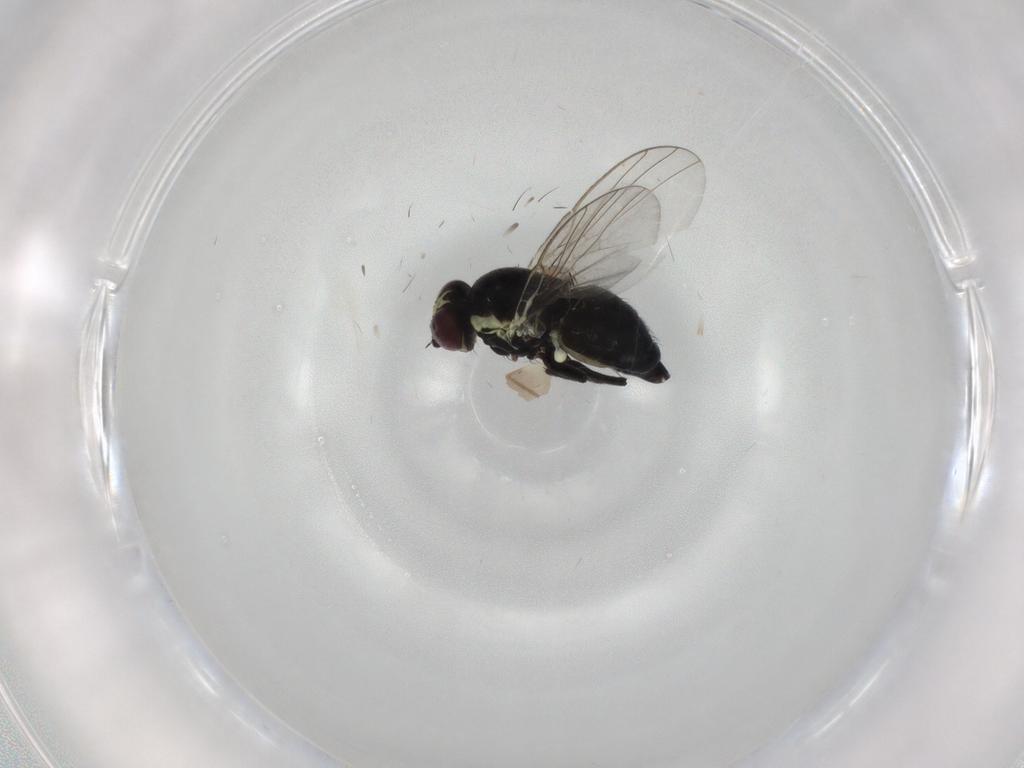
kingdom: Animalia
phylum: Arthropoda
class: Insecta
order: Diptera
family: Agromyzidae
